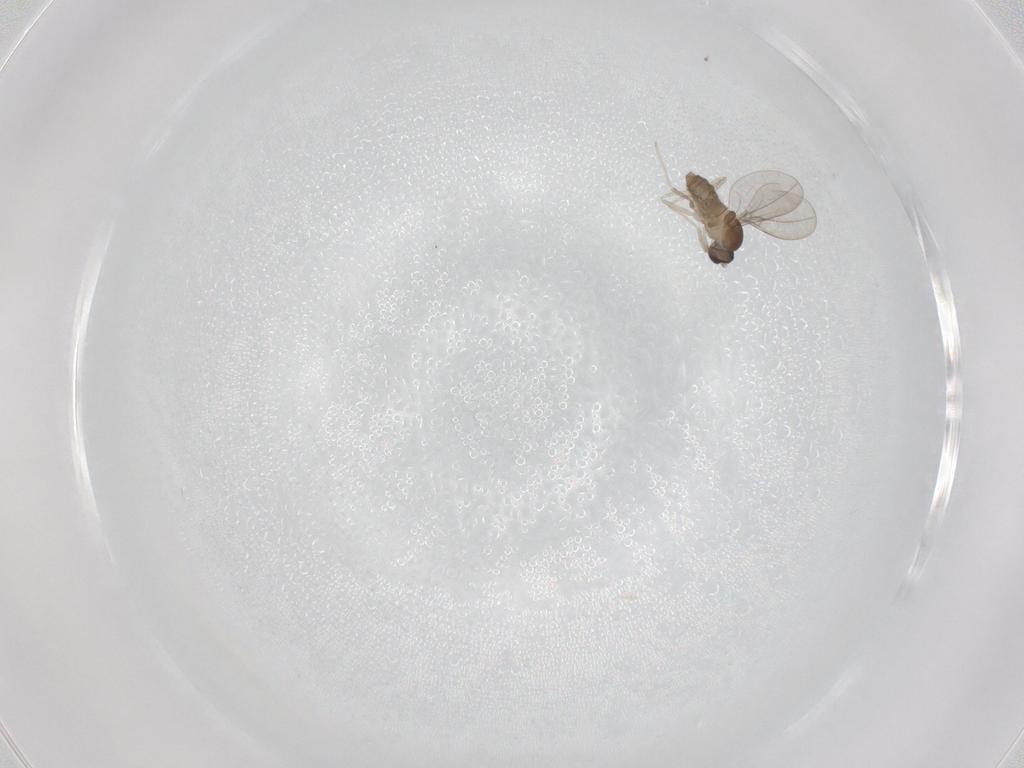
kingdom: Animalia
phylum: Arthropoda
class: Insecta
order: Diptera
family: Cecidomyiidae
